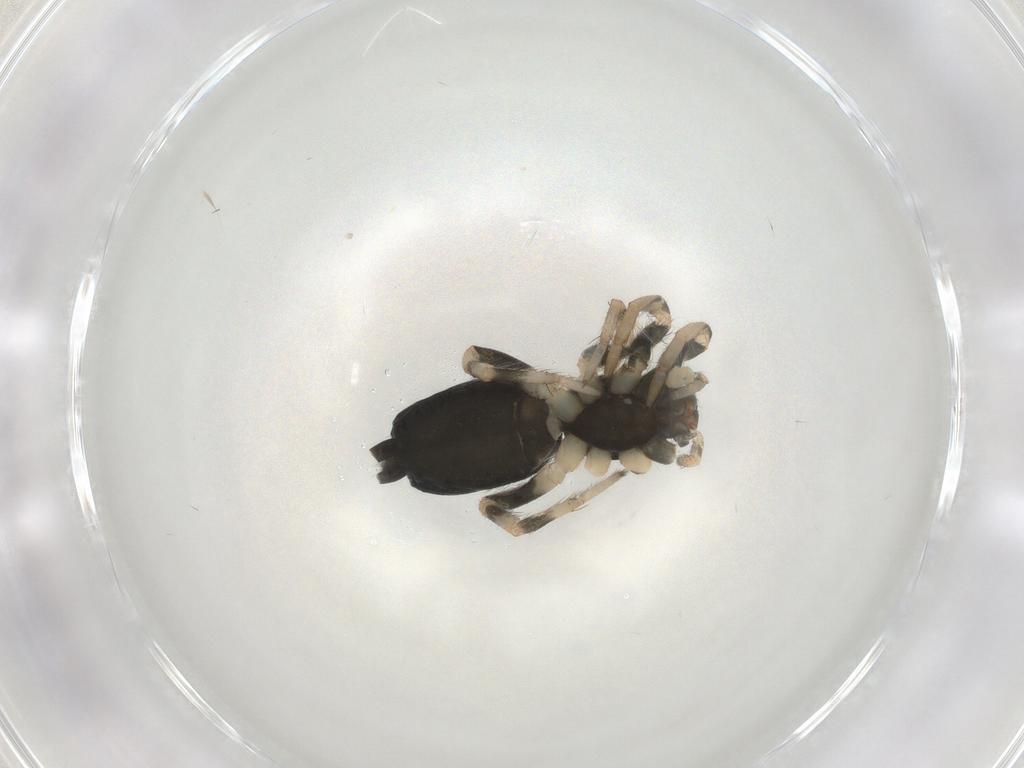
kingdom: Animalia
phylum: Arthropoda
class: Arachnida
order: Araneae
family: Gnaphosidae
